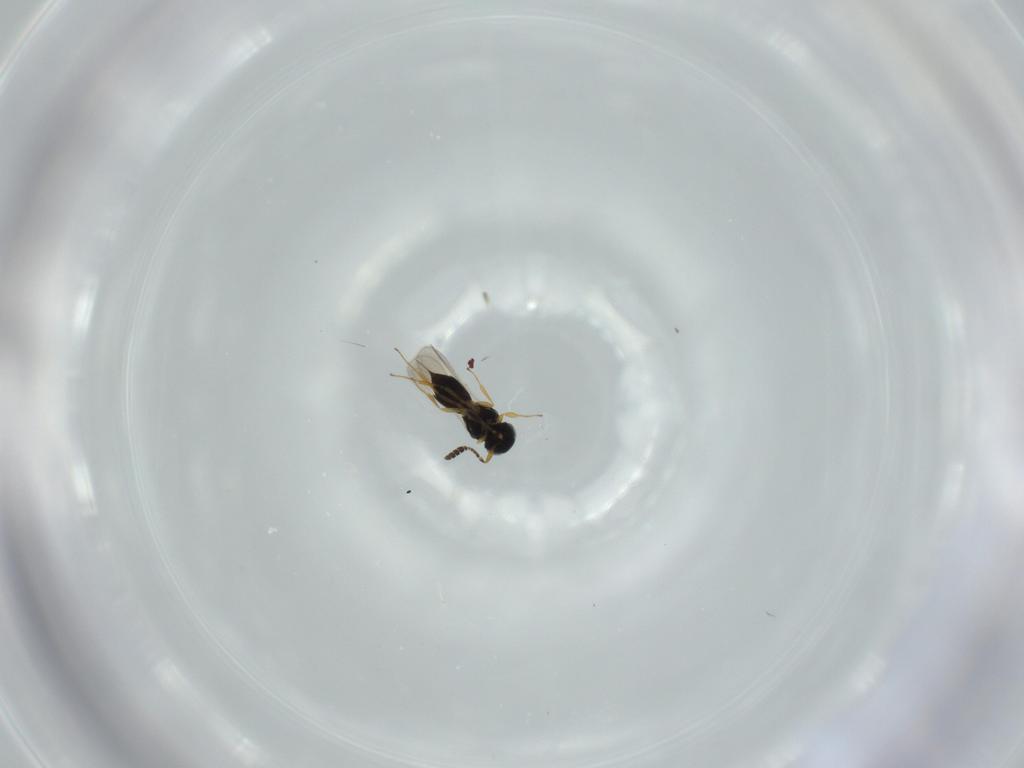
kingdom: Animalia
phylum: Arthropoda
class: Insecta
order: Hymenoptera
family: Scelionidae
